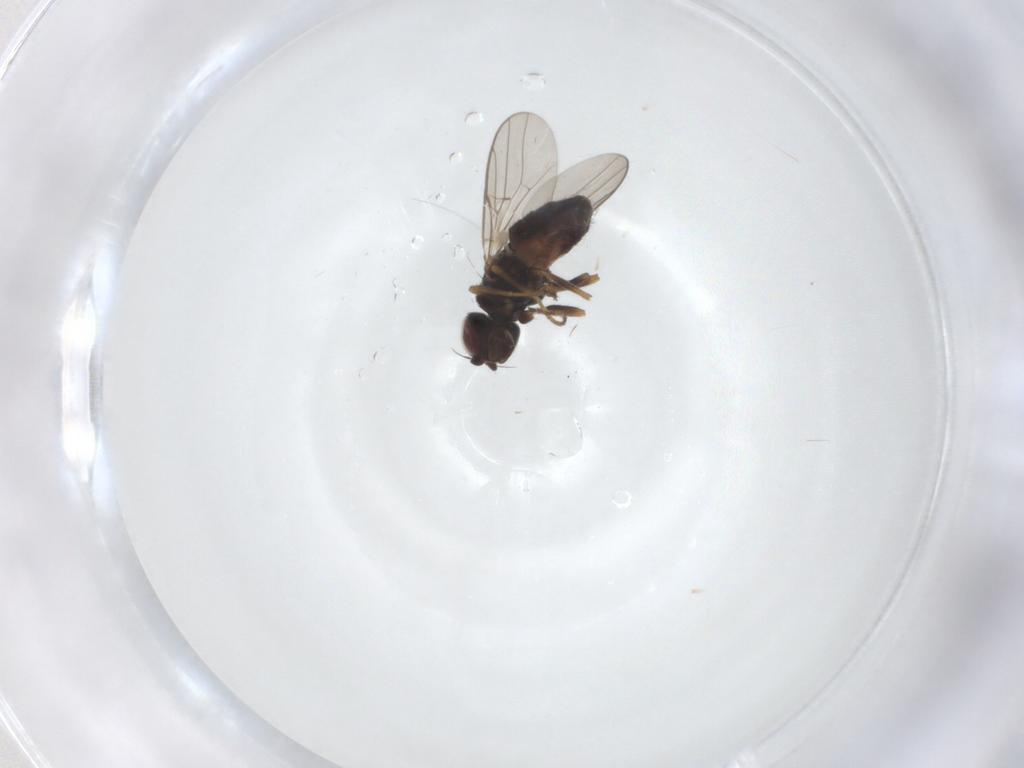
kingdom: Animalia
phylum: Arthropoda
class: Insecta
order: Diptera
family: Chloropidae
